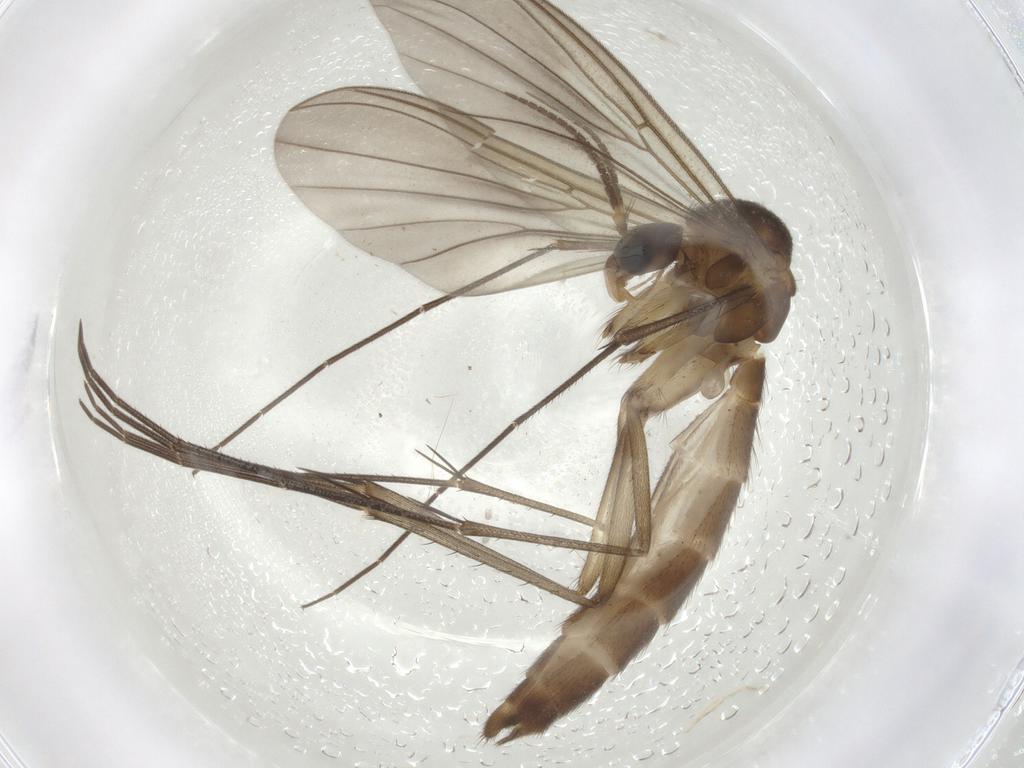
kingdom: Animalia
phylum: Arthropoda
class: Insecta
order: Diptera
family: Mycetophilidae
